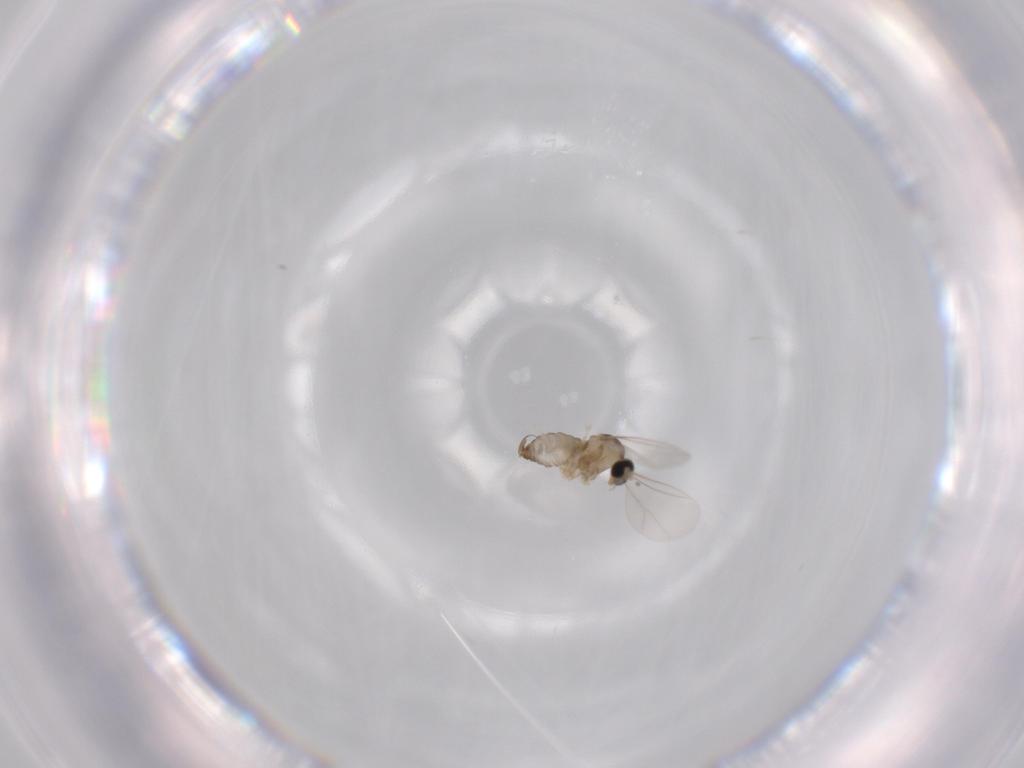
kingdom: Animalia
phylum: Arthropoda
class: Insecta
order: Diptera
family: Cecidomyiidae
